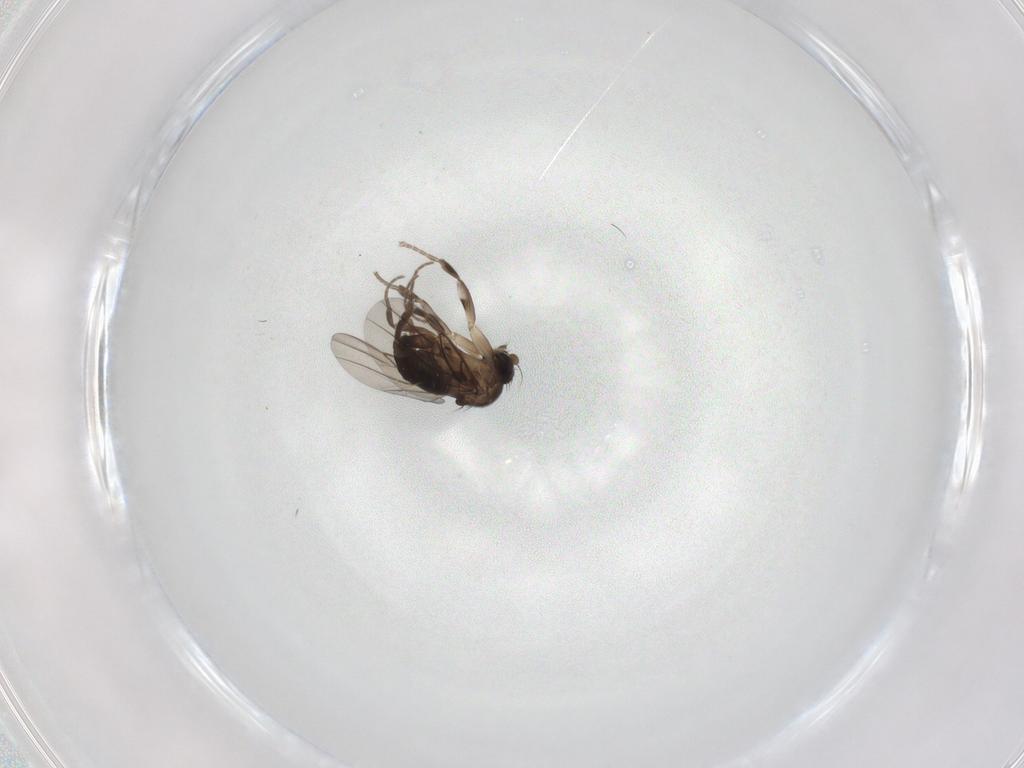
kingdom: Animalia
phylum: Arthropoda
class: Insecta
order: Diptera
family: Phoridae
